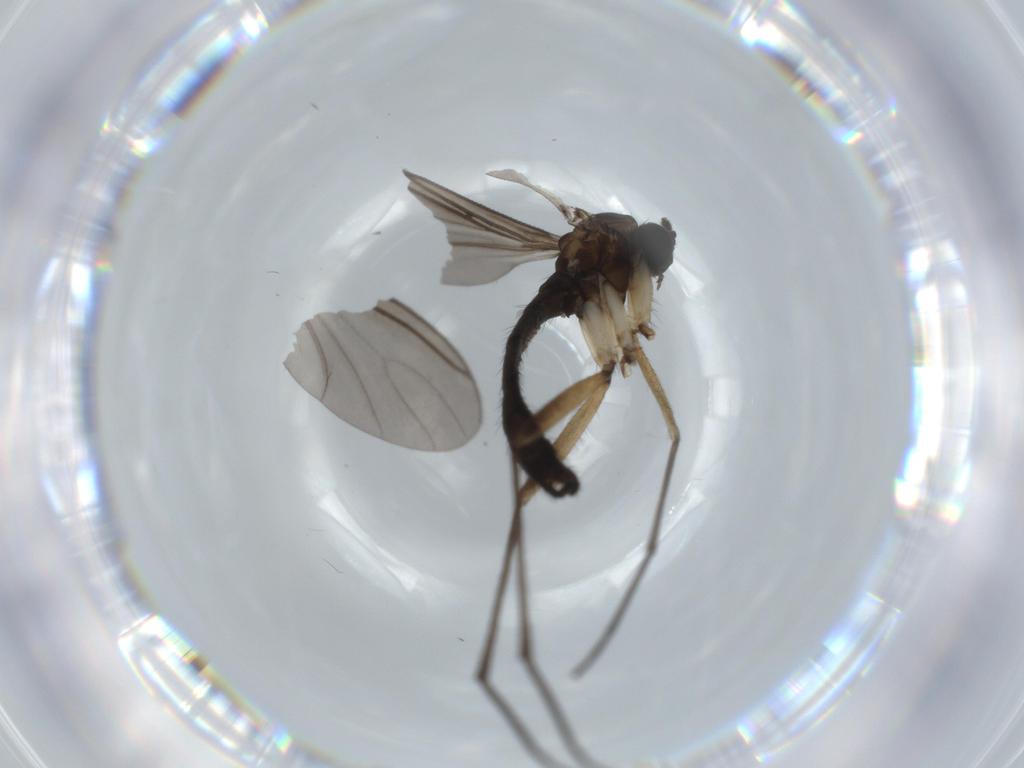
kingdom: Animalia
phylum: Arthropoda
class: Insecta
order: Diptera
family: Sciaridae
